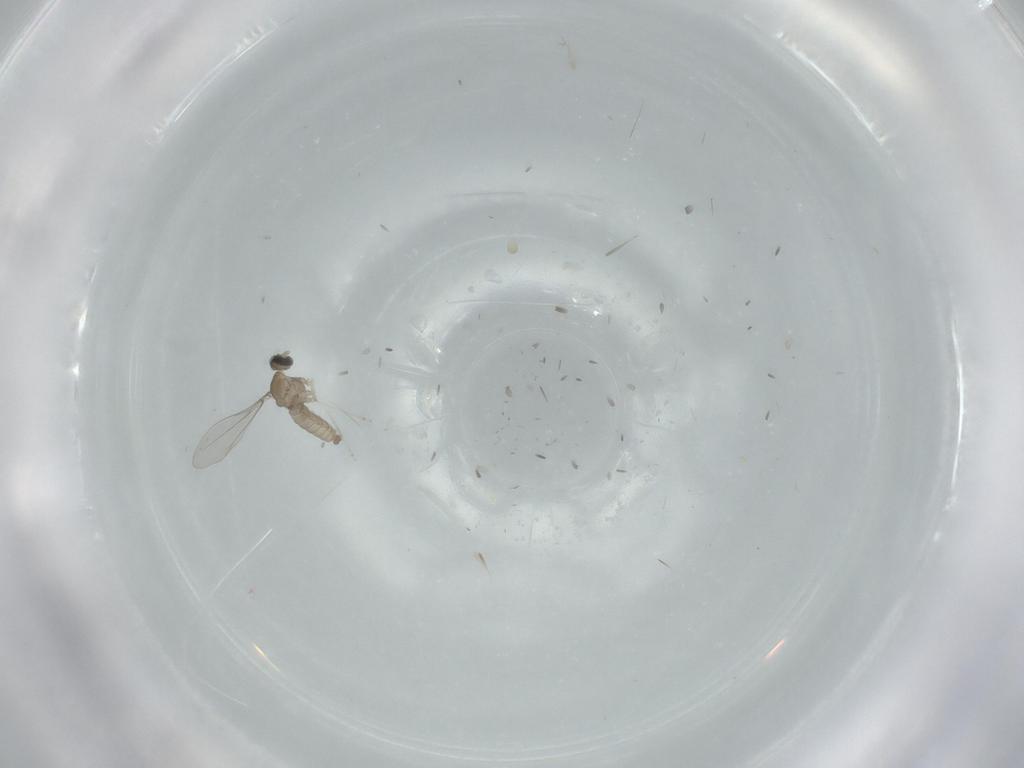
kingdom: Animalia
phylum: Arthropoda
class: Insecta
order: Diptera
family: Cecidomyiidae
